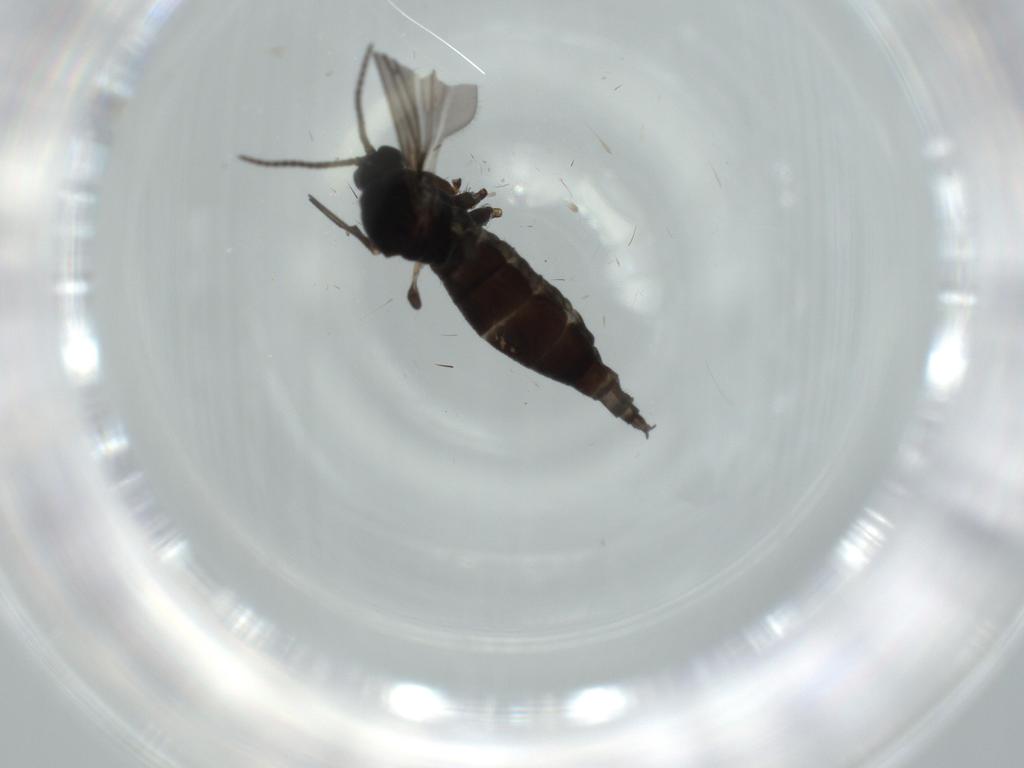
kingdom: Animalia
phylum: Arthropoda
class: Insecta
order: Diptera
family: Sciaridae
